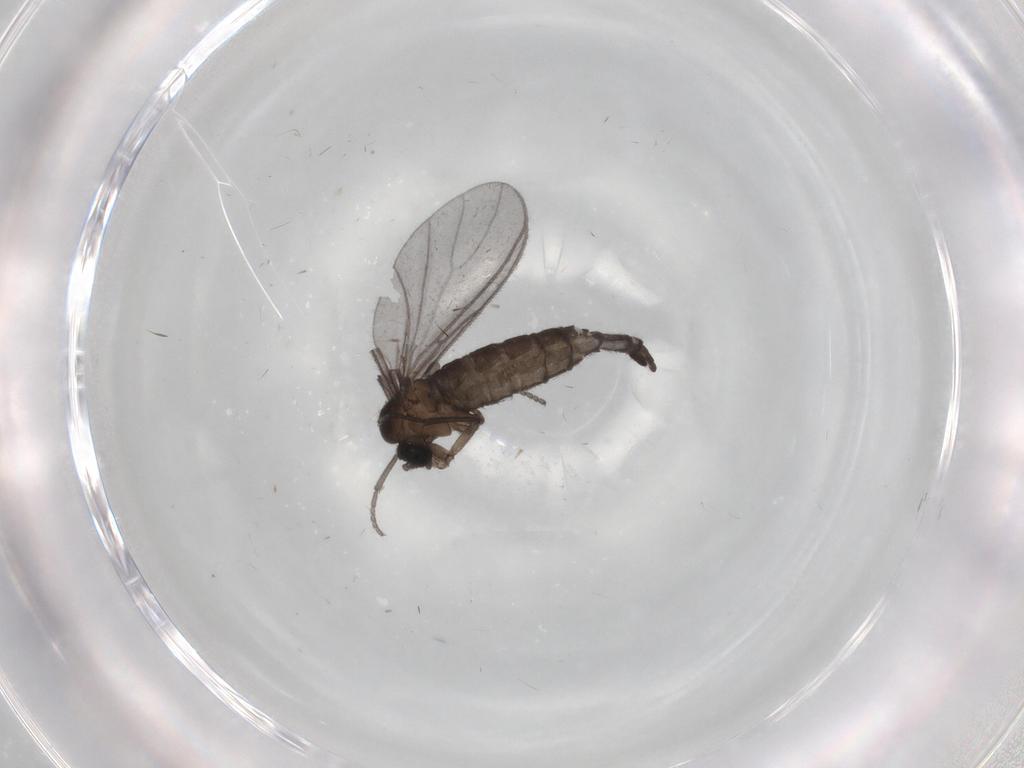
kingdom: Animalia
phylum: Arthropoda
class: Insecta
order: Diptera
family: Sciaridae
